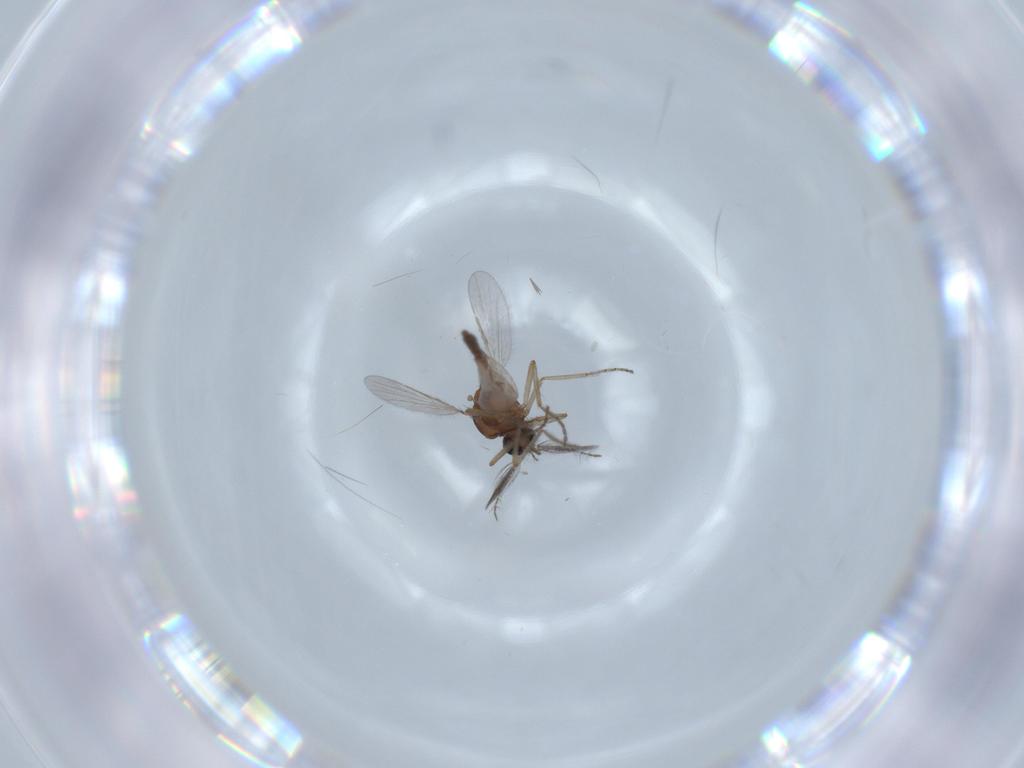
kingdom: Animalia
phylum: Arthropoda
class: Insecta
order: Diptera
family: Ceratopogonidae
